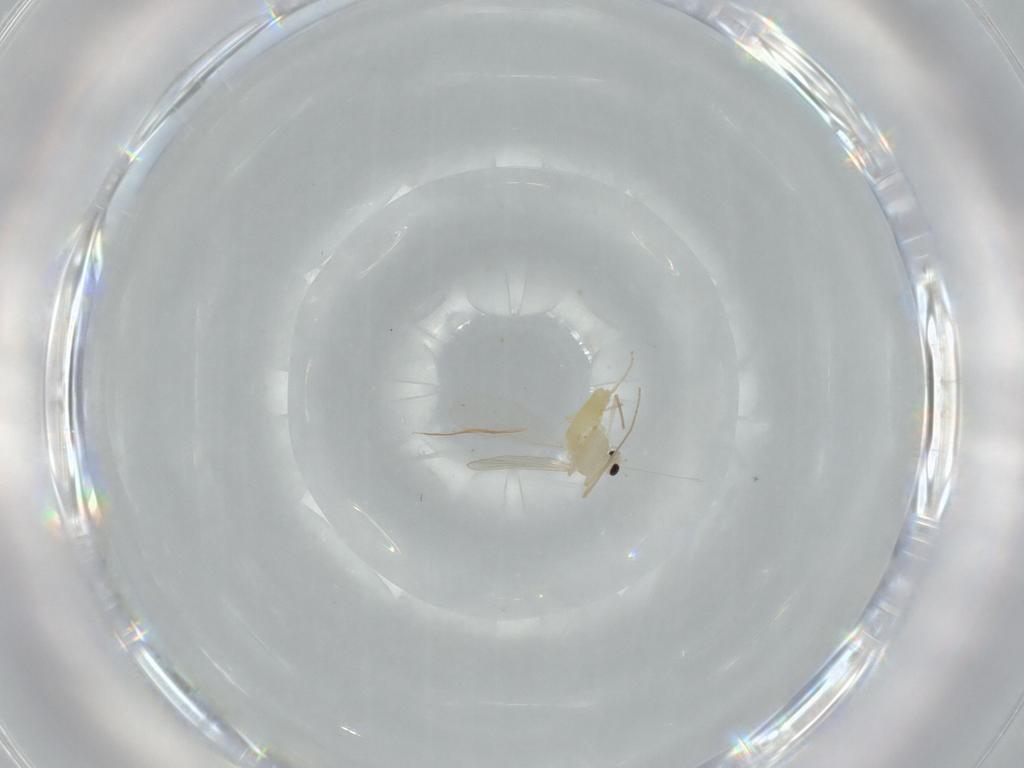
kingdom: Animalia
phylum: Arthropoda
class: Insecta
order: Diptera
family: Chironomidae
